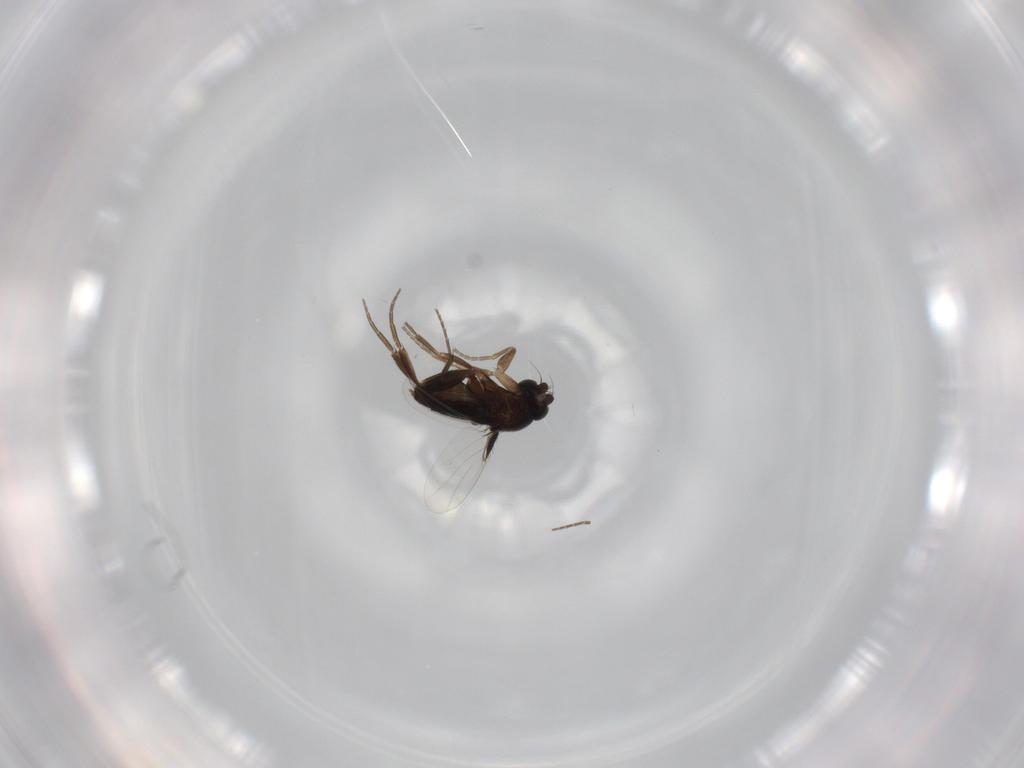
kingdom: Animalia
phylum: Arthropoda
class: Insecta
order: Diptera
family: Phoridae
